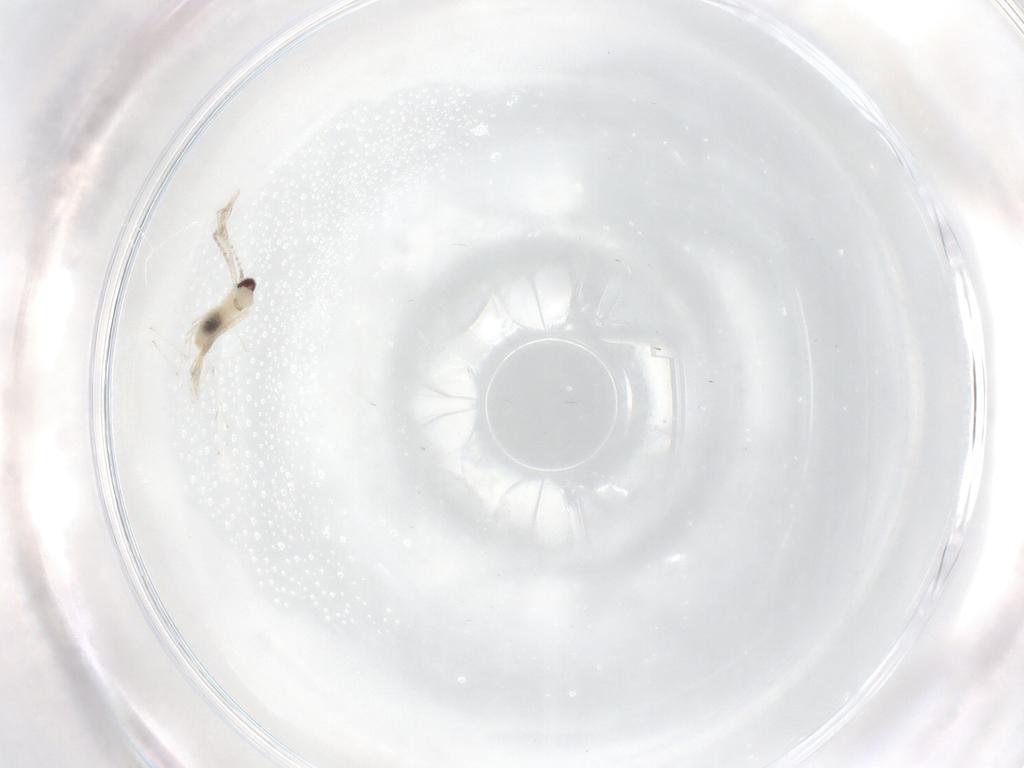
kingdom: Animalia
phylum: Arthropoda
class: Insecta
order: Diptera
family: Cecidomyiidae
